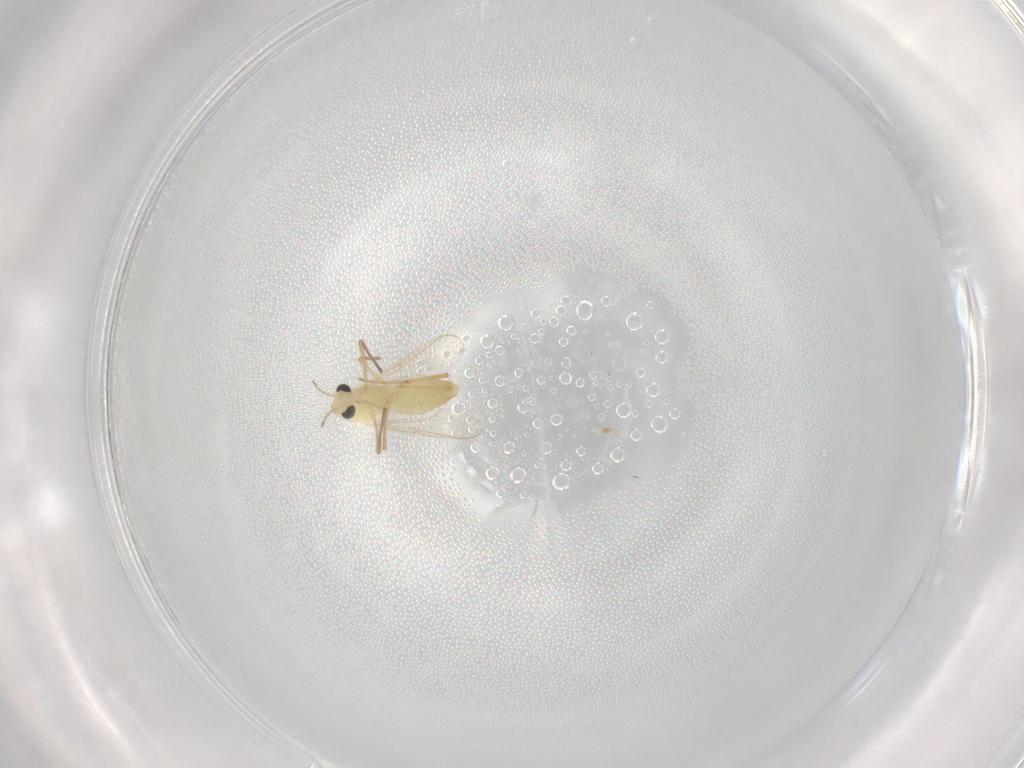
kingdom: Animalia
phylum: Arthropoda
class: Insecta
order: Diptera
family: Chironomidae
